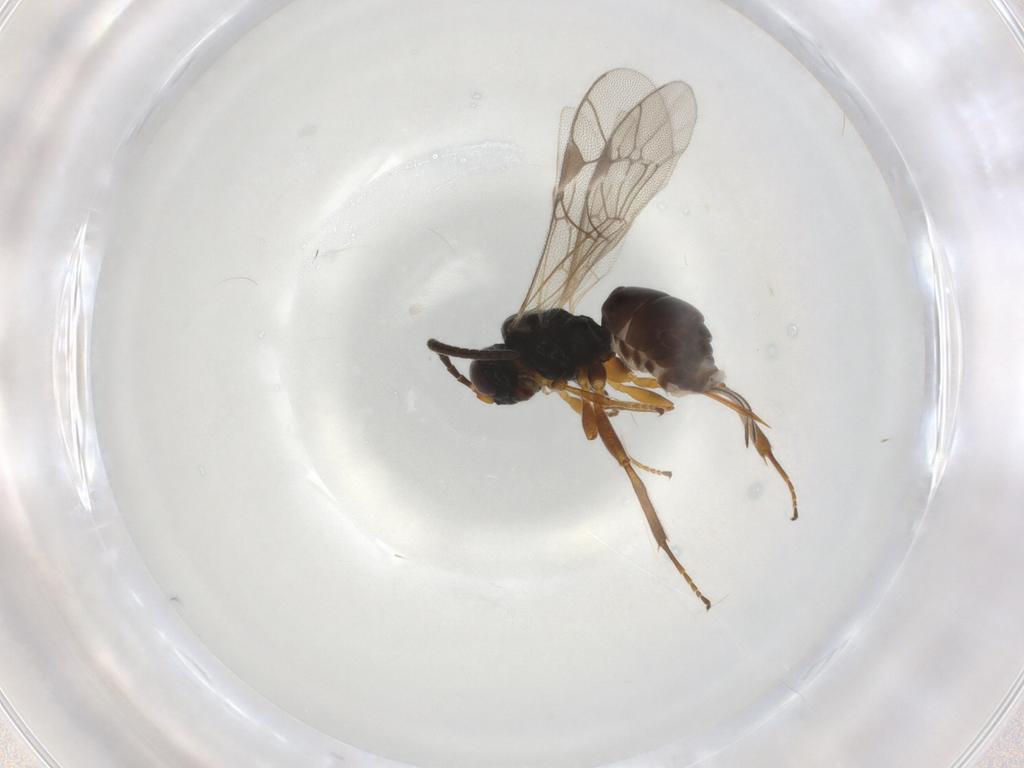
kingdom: Animalia
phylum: Arthropoda
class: Insecta
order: Hymenoptera
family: Ichneumonidae
